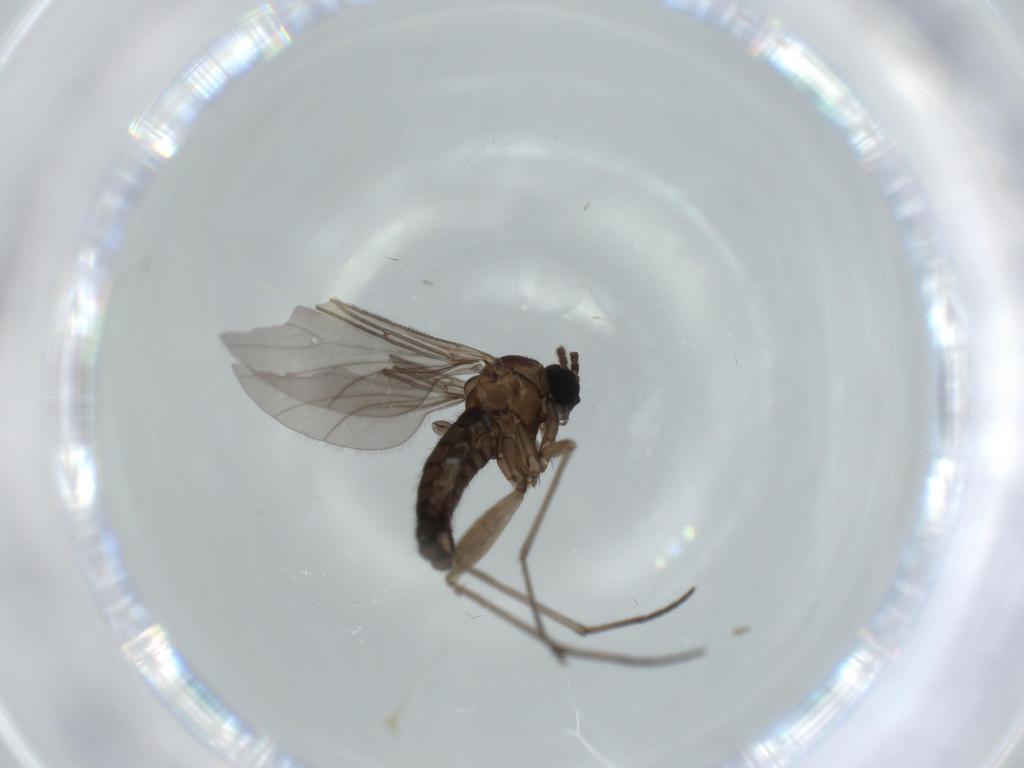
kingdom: Animalia
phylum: Arthropoda
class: Insecta
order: Diptera
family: Sciaridae
